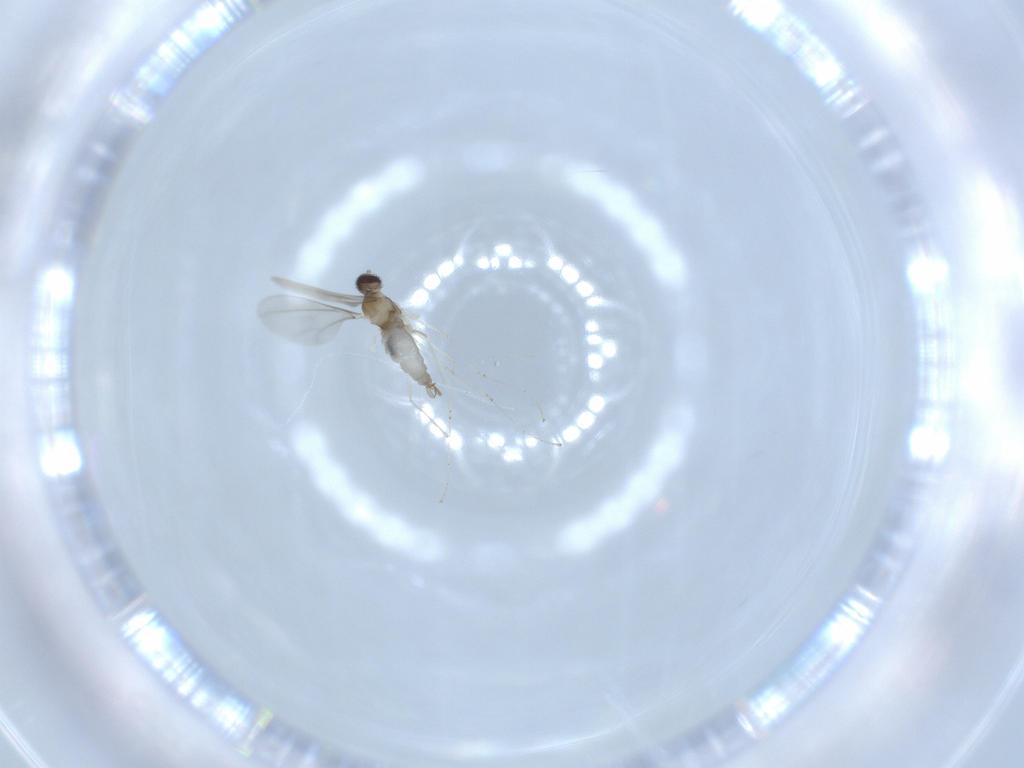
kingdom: Animalia
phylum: Arthropoda
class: Insecta
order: Diptera
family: Cecidomyiidae
